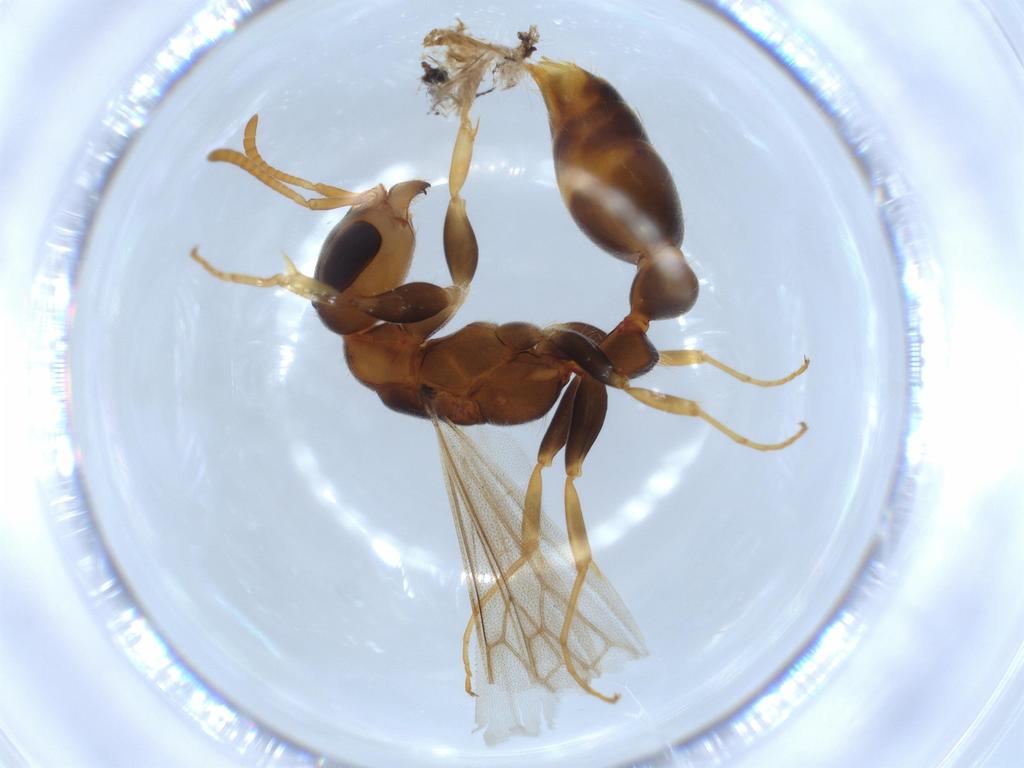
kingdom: Animalia
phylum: Arthropoda
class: Insecta
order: Hymenoptera
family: Formicidae
